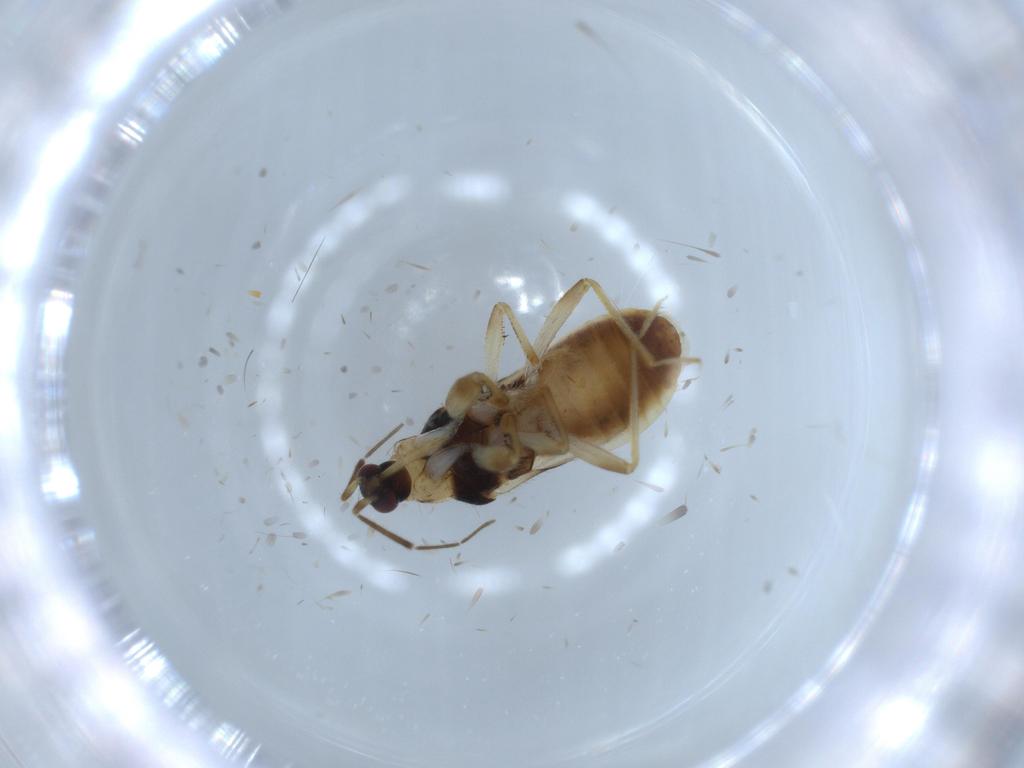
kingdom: Animalia
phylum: Arthropoda
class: Insecta
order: Hemiptera
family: Nabidae
